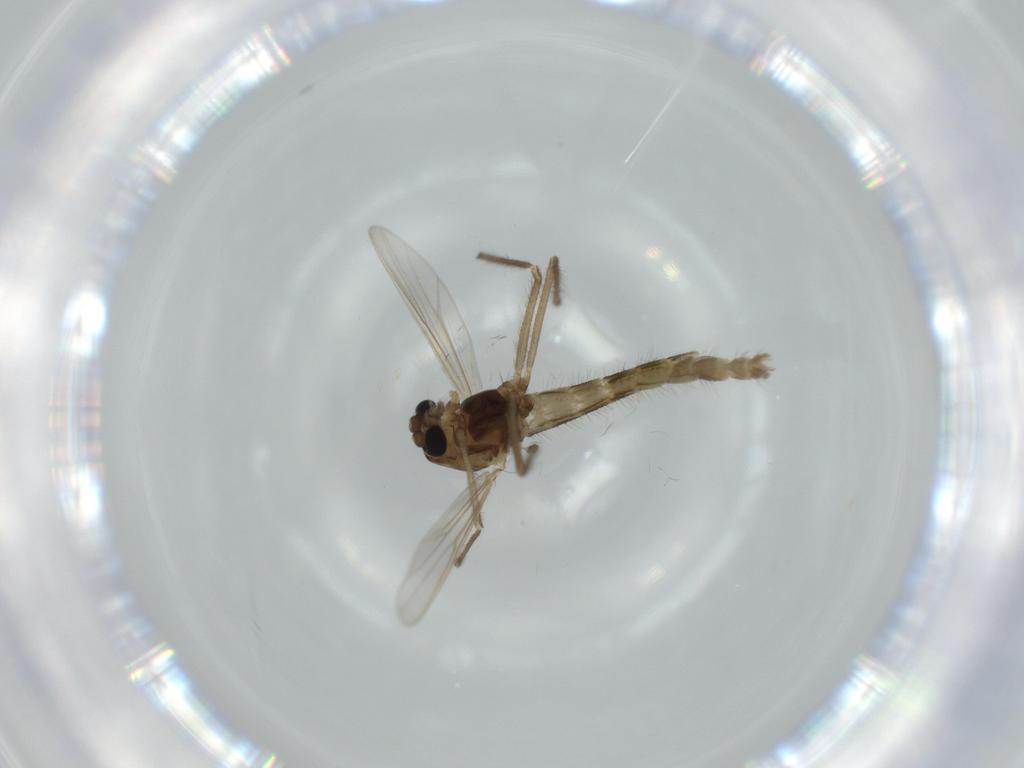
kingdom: Animalia
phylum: Arthropoda
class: Insecta
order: Diptera
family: Chironomidae
